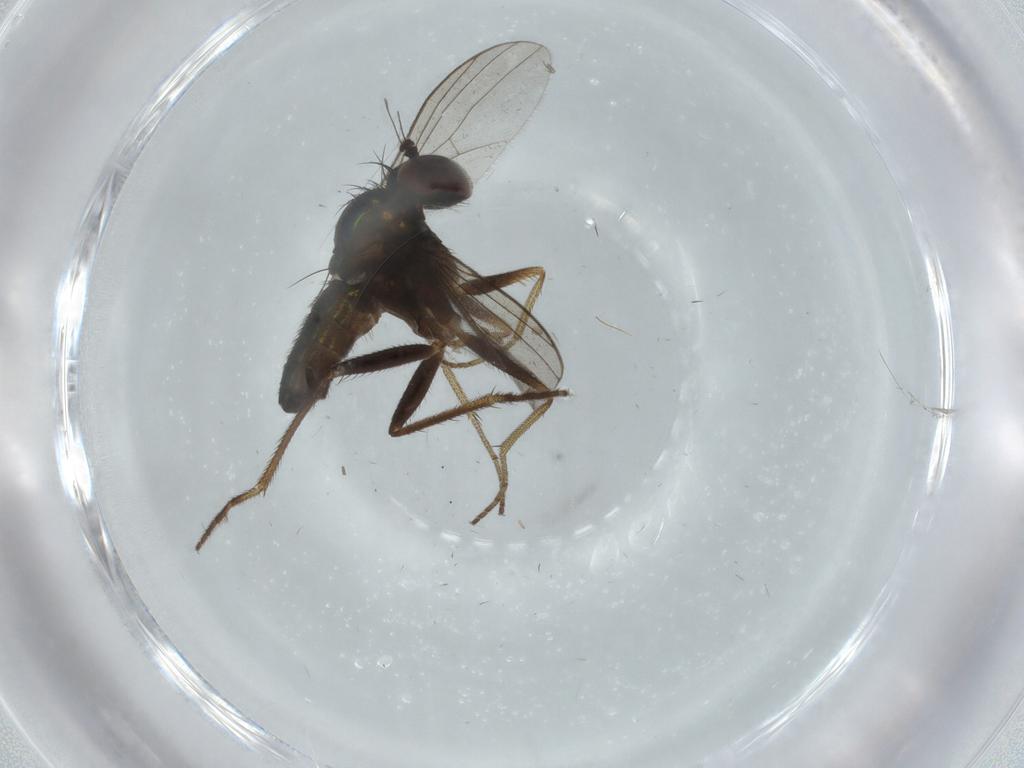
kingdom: Animalia
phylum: Arthropoda
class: Insecta
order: Diptera
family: Dolichopodidae
